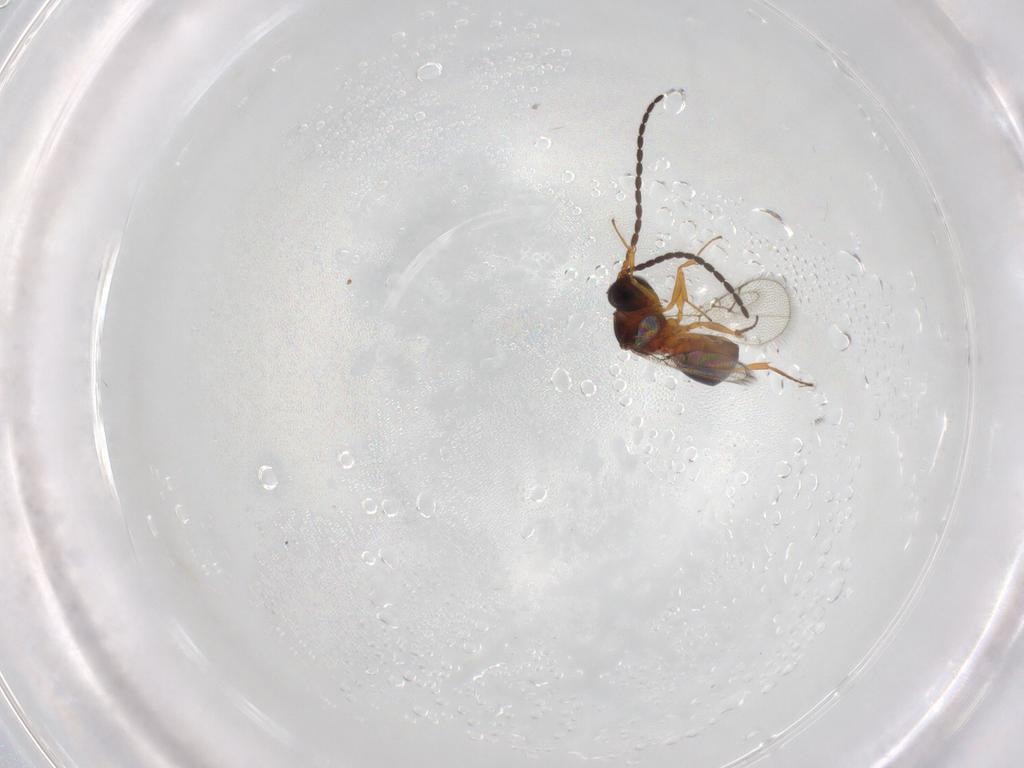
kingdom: Animalia
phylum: Arthropoda
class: Insecta
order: Hymenoptera
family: Figitidae
